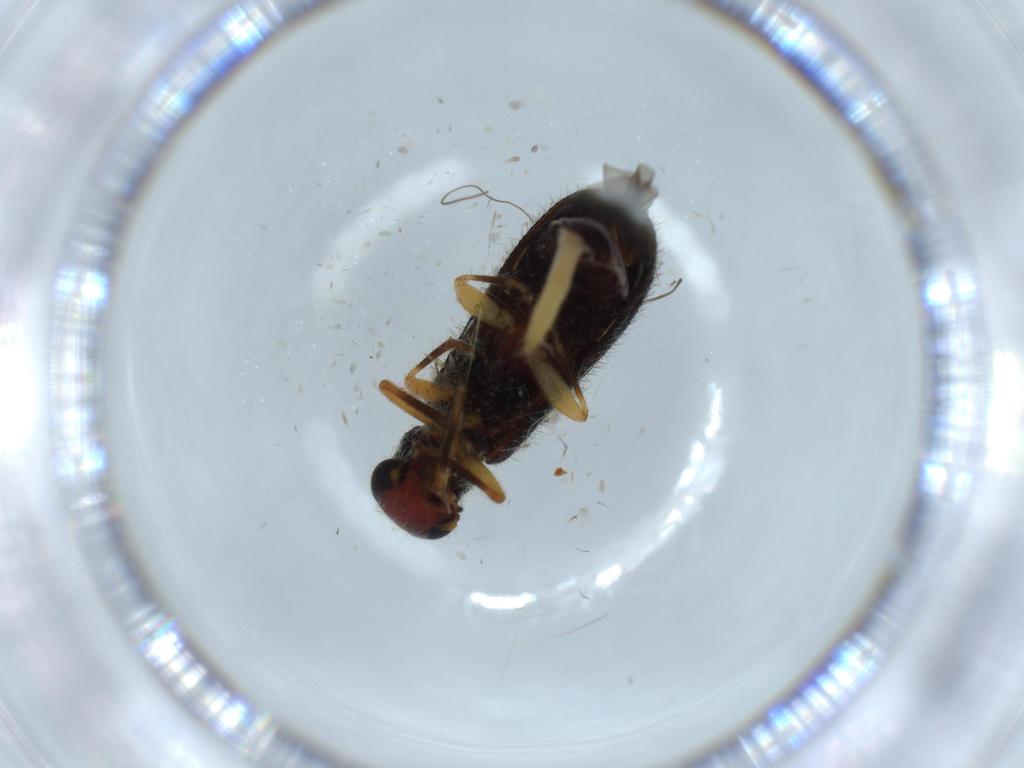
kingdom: Animalia
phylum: Arthropoda
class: Insecta
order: Coleoptera
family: Cleridae
